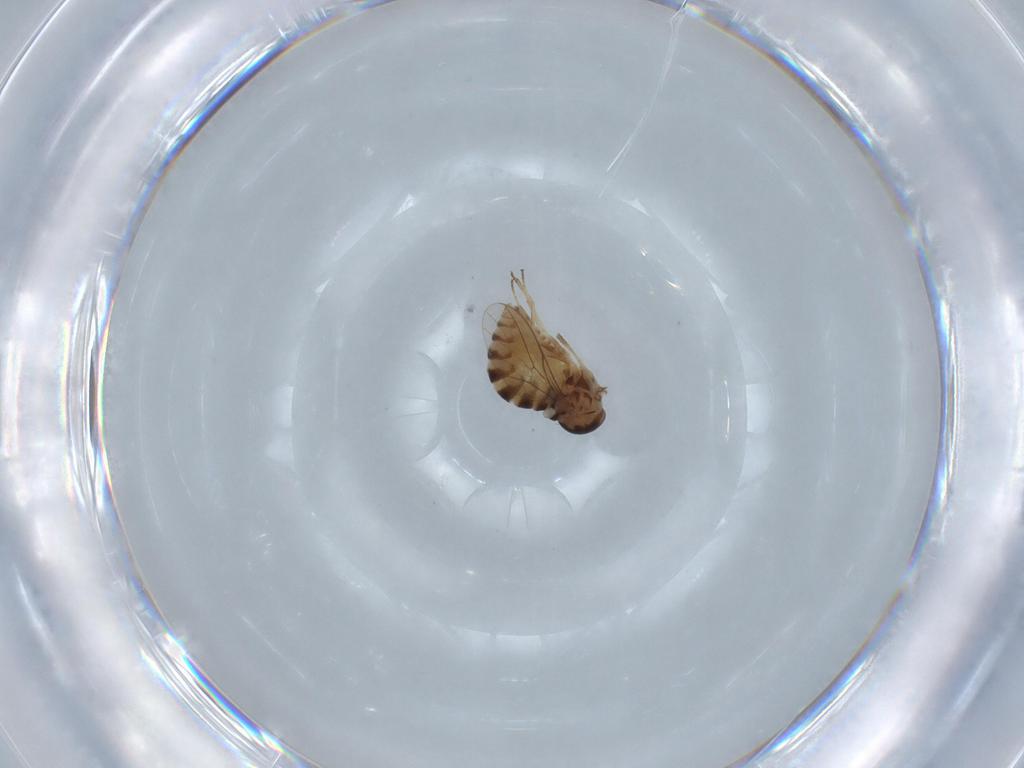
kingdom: Animalia
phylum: Arthropoda
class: Insecta
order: Diptera
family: Mythicomyiidae
